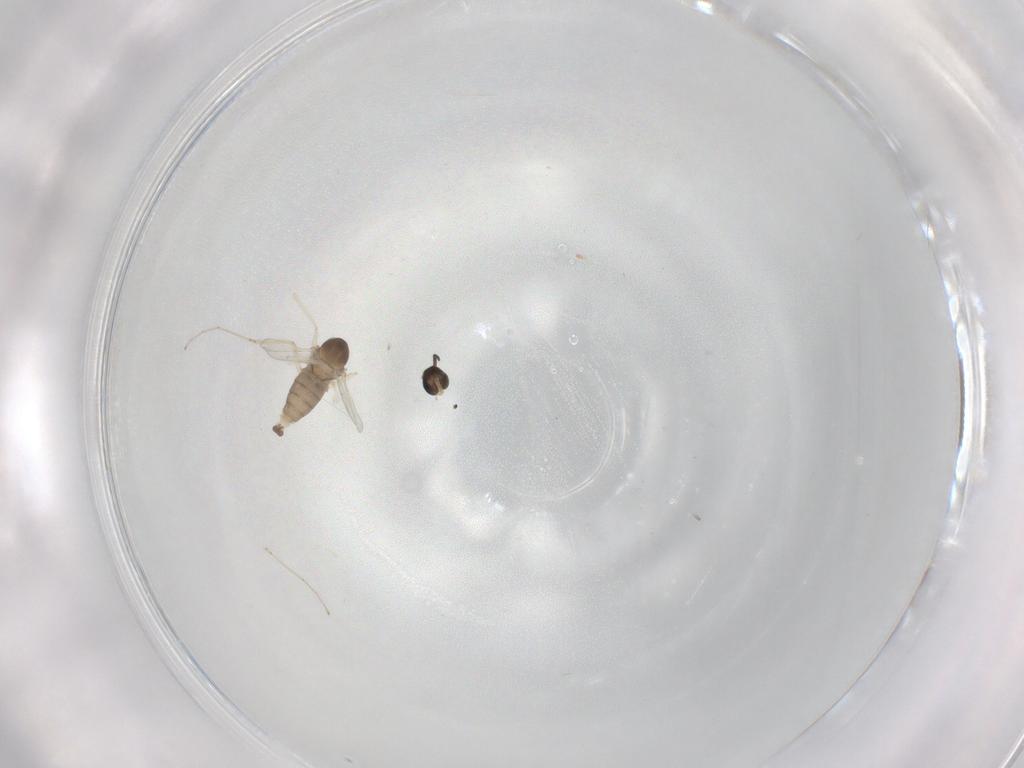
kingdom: Animalia
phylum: Arthropoda
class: Insecta
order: Diptera
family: Cecidomyiidae
